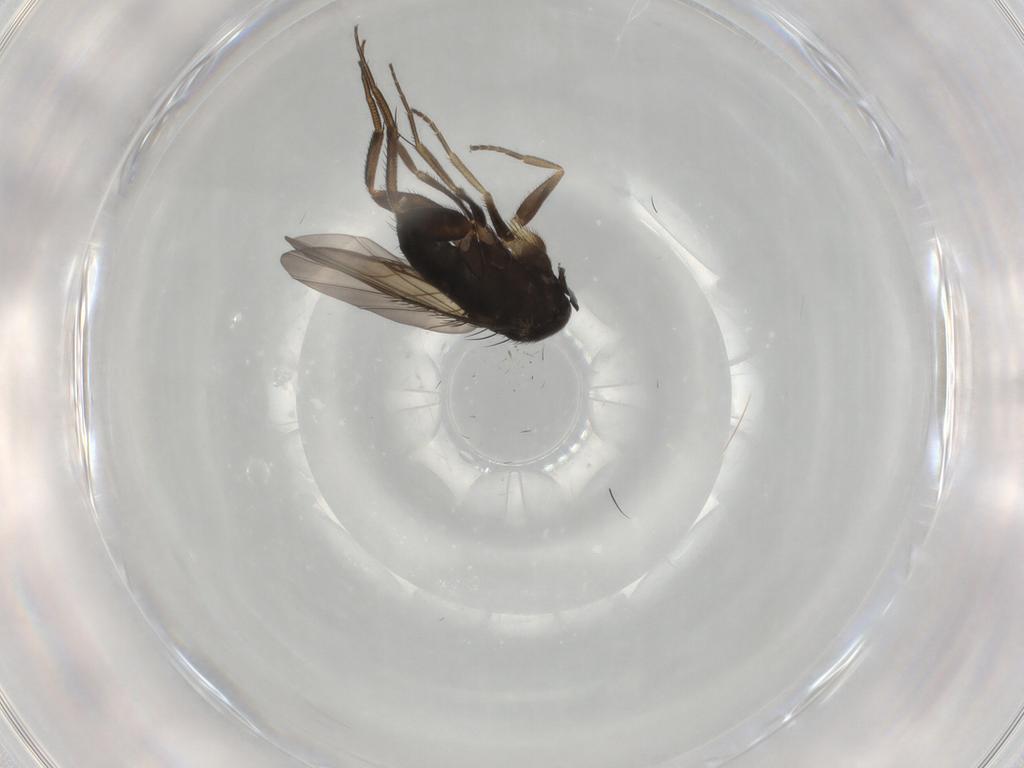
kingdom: Animalia
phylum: Arthropoda
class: Insecta
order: Diptera
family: Phoridae
